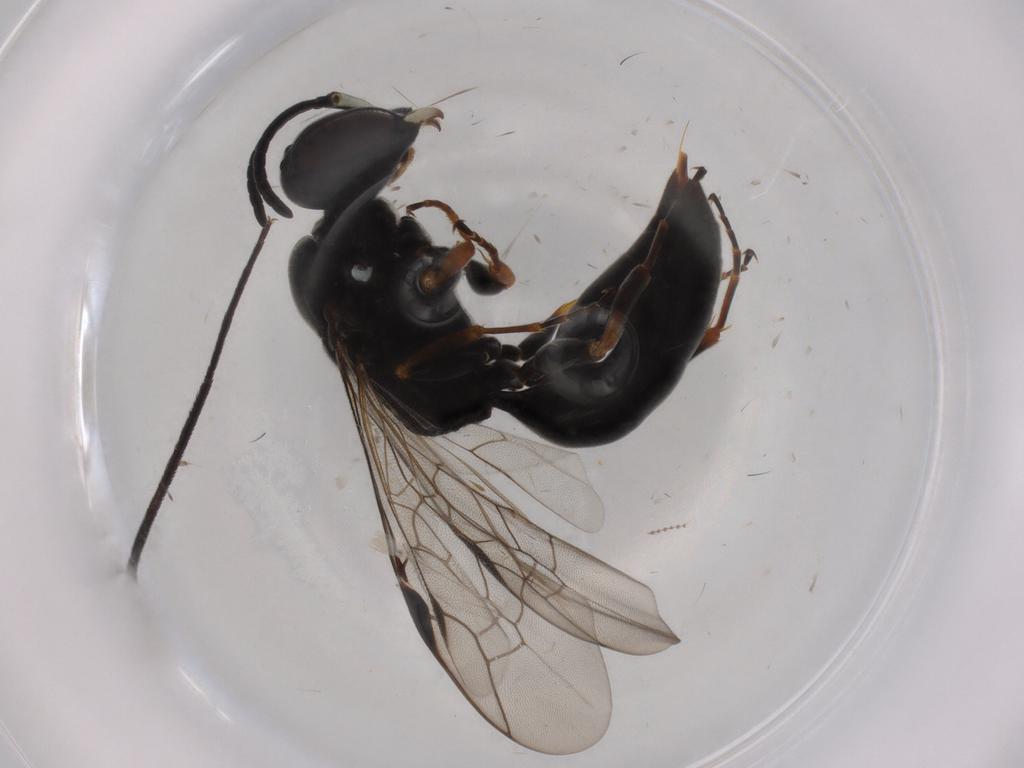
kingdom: Animalia
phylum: Arthropoda
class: Insecta
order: Hymenoptera
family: Crabronidae
